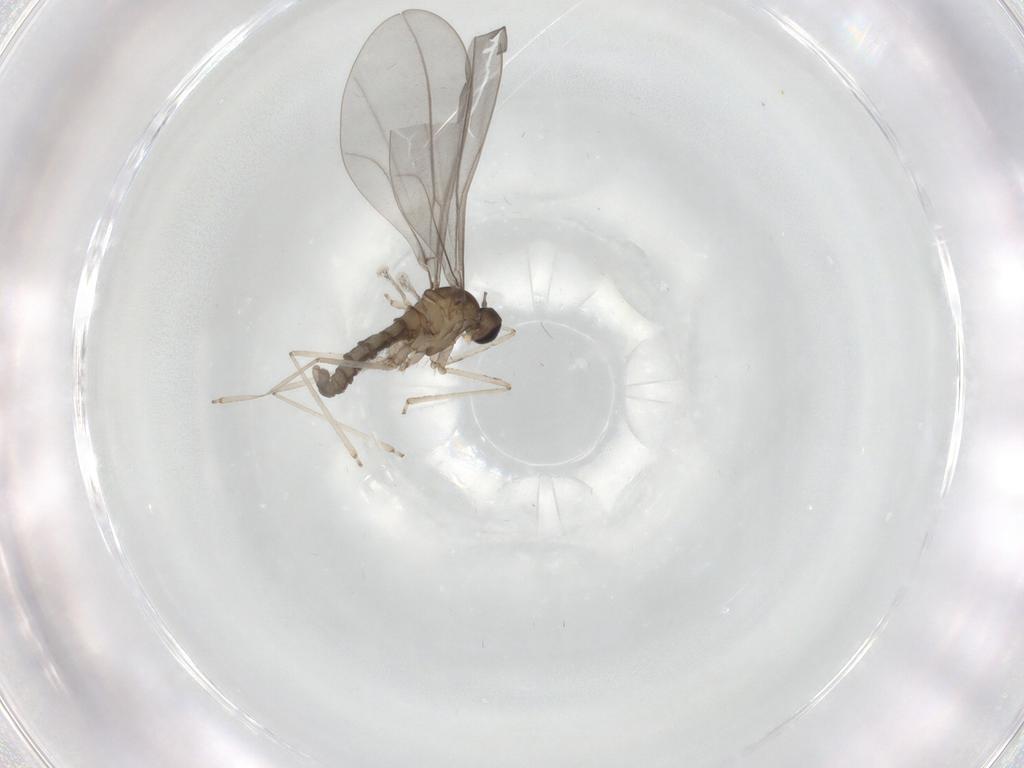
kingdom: Animalia
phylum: Arthropoda
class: Insecta
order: Diptera
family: Cecidomyiidae
